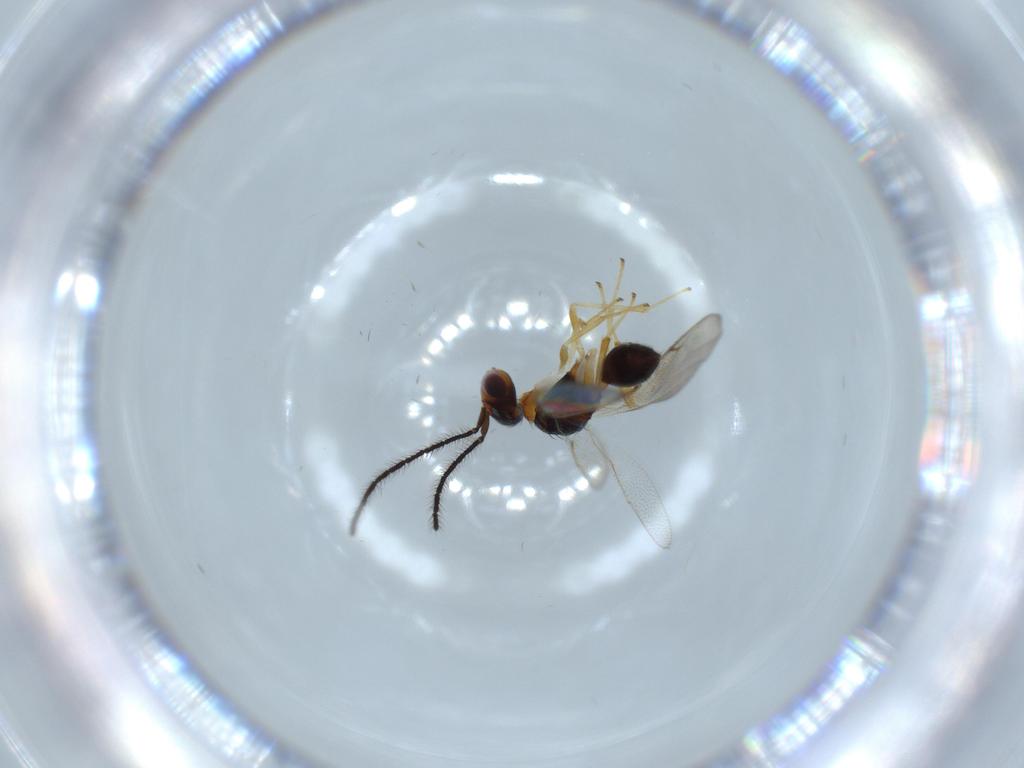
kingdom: Animalia
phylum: Arthropoda
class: Insecta
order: Hymenoptera
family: Diparidae
